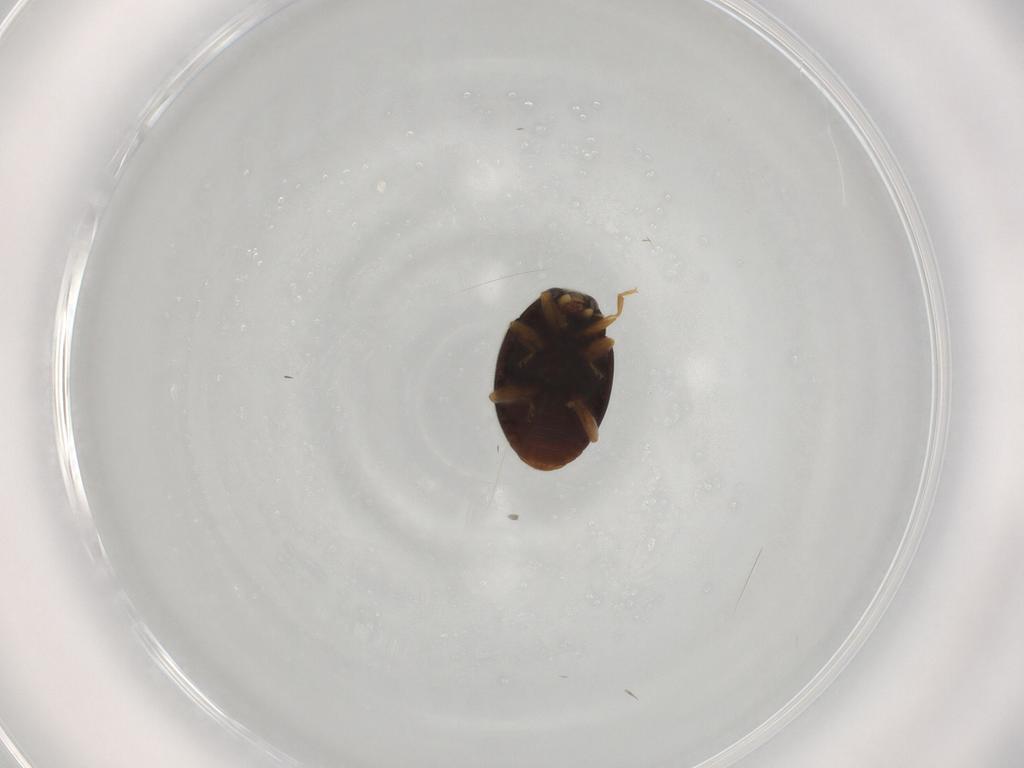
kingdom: Animalia
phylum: Arthropoda
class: Insecta
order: Coleoptera
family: Coccinellidae
